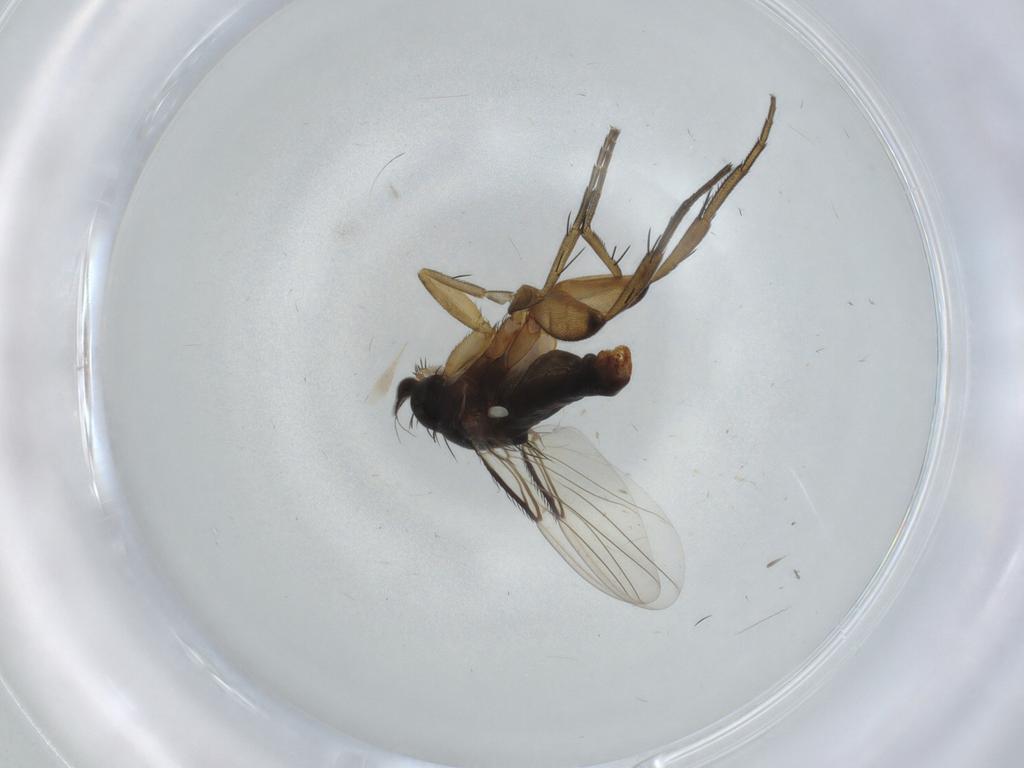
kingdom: Animalia
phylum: Arthropoda
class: Insecta
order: Diptera
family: Phoridae
